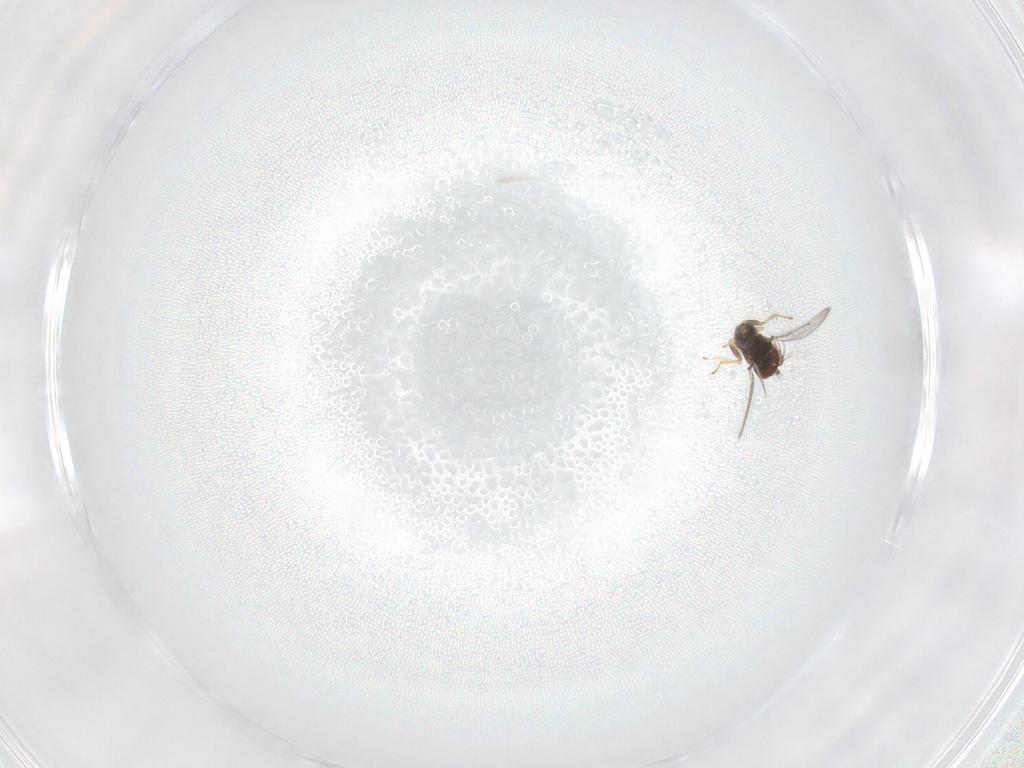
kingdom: Animalia
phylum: Arthropoda
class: Insecta
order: Hymenoptera
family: Eulophidae
